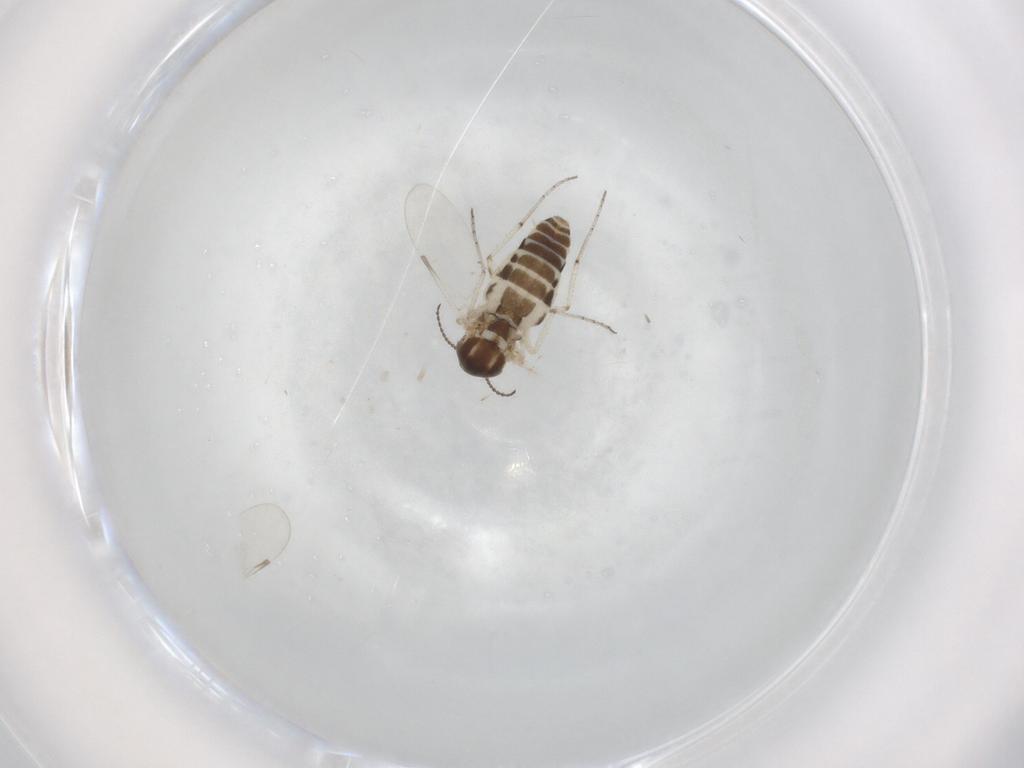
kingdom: Animalia
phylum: Arthropoda
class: Insecta
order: Diptera
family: Ceratopogonidae
